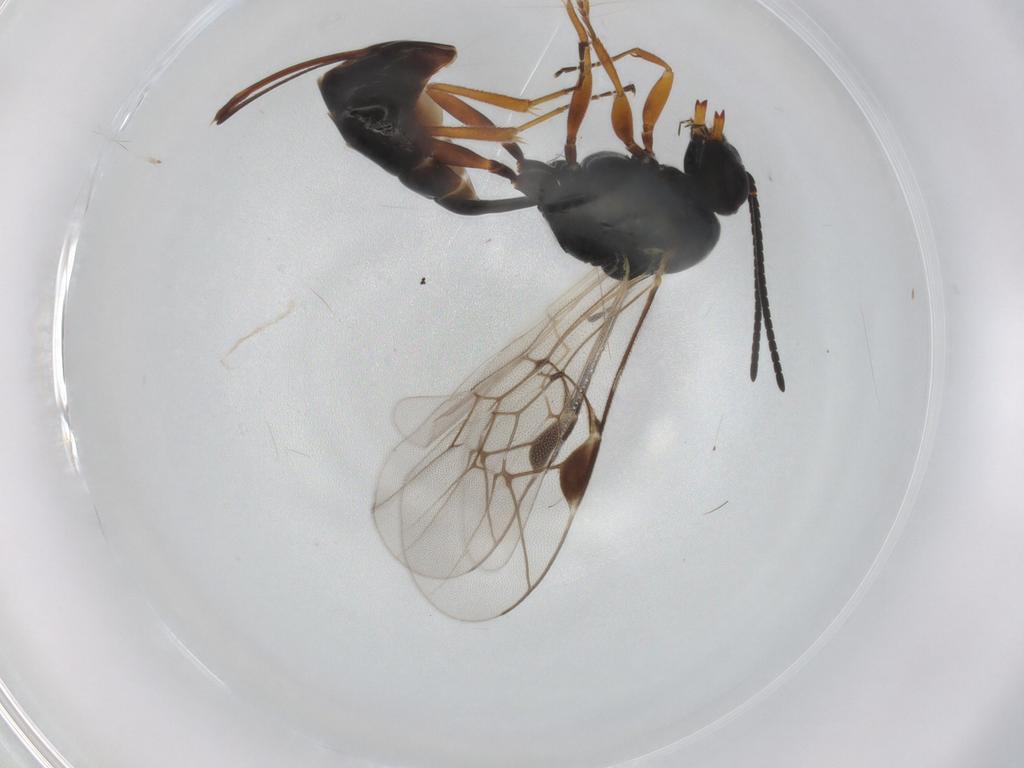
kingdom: Animalia
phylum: Arthropoda
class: Insecta
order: Hymenoptera
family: Ichneumonidae
